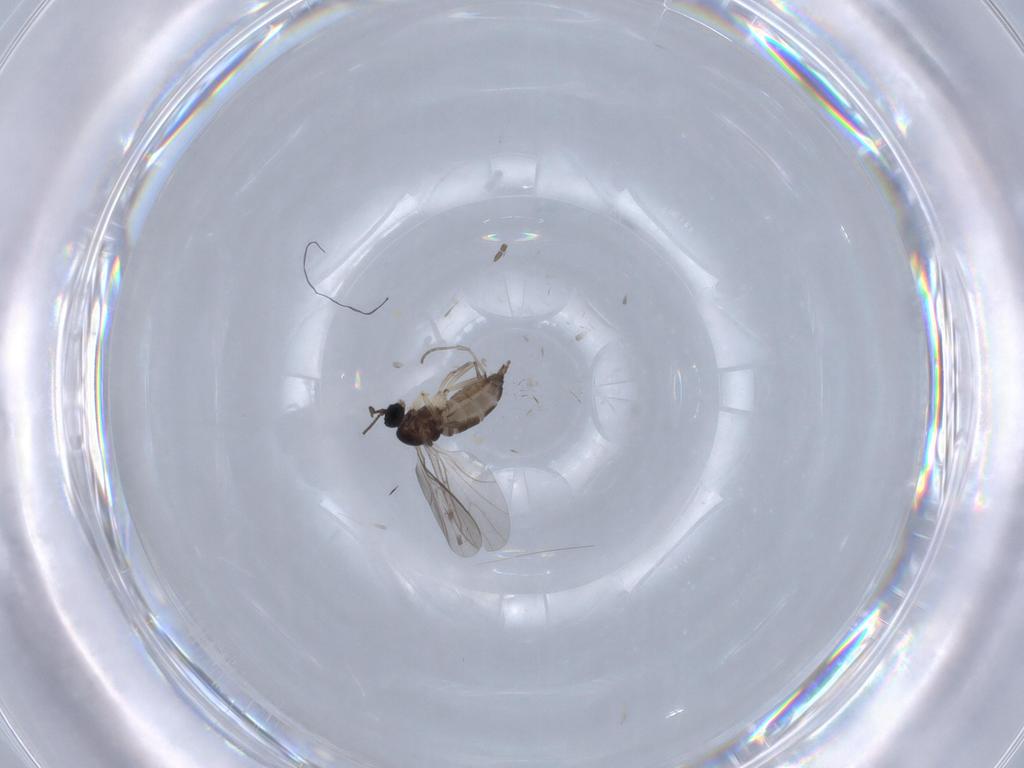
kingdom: Animalia
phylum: Arthropoda
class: Insecta
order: Diptera
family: Sciaridae
